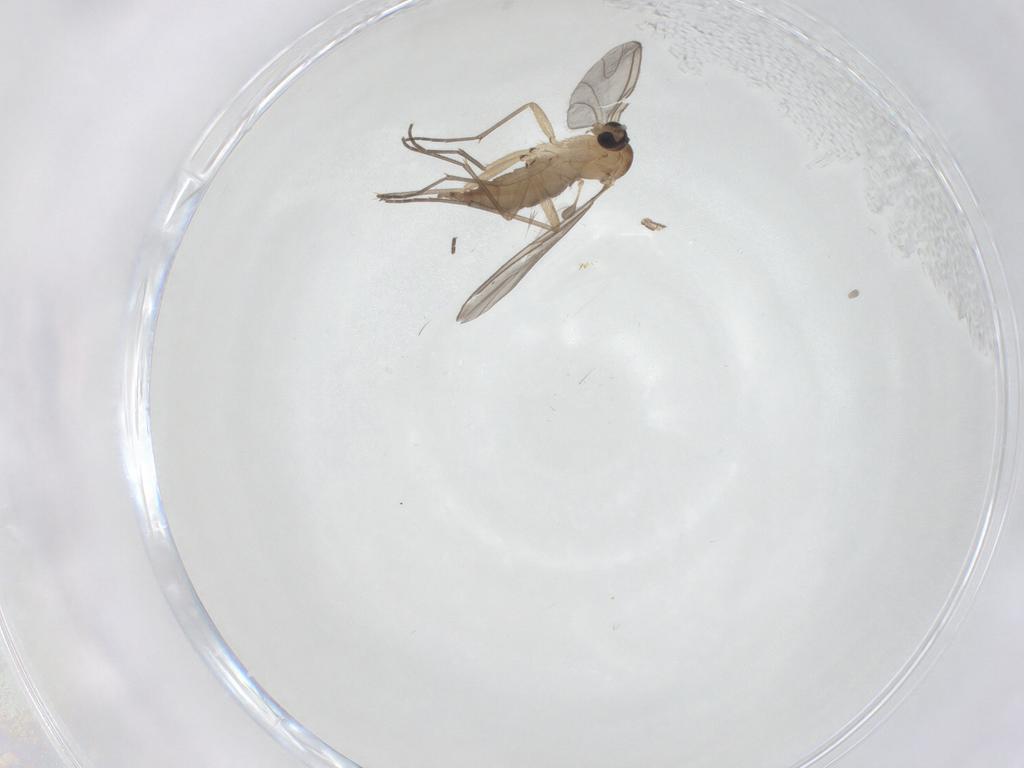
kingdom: Animalia
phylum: Arthropoda
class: Insecta
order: Diptera
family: Sciaridae
